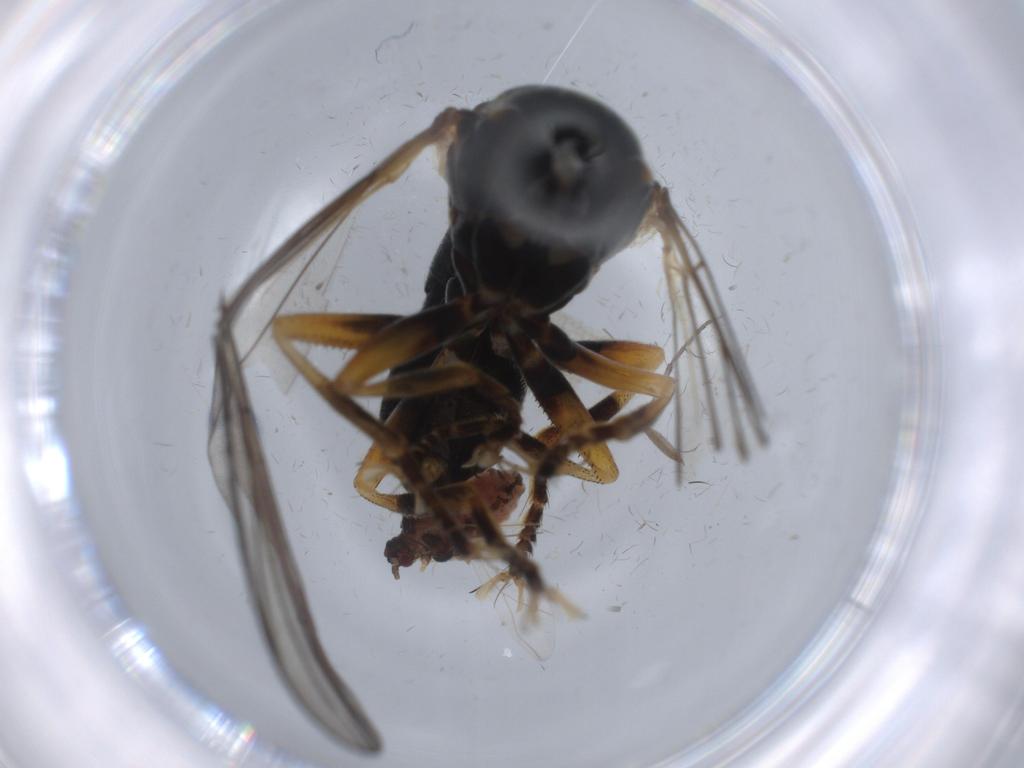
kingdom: Animalia
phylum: Arthropoda
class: Insecta
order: Diptera
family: Pipunculidae
